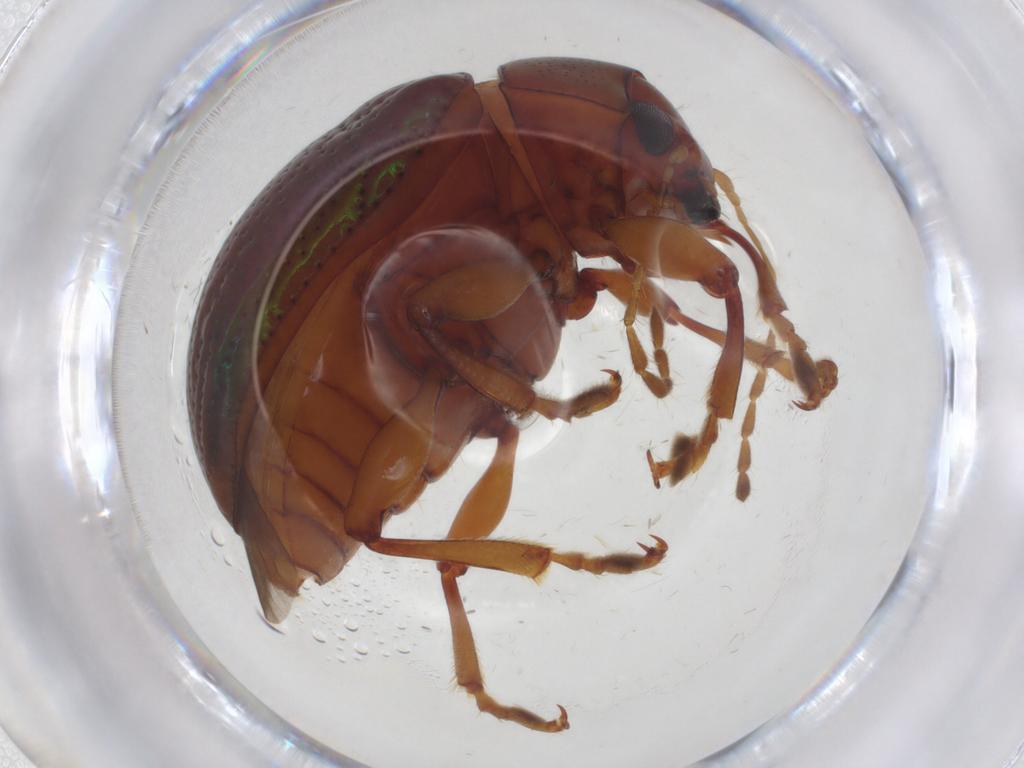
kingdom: Animalia
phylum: Arthropoda
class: Insecta
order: Coleoptera
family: Chrysomelidae
